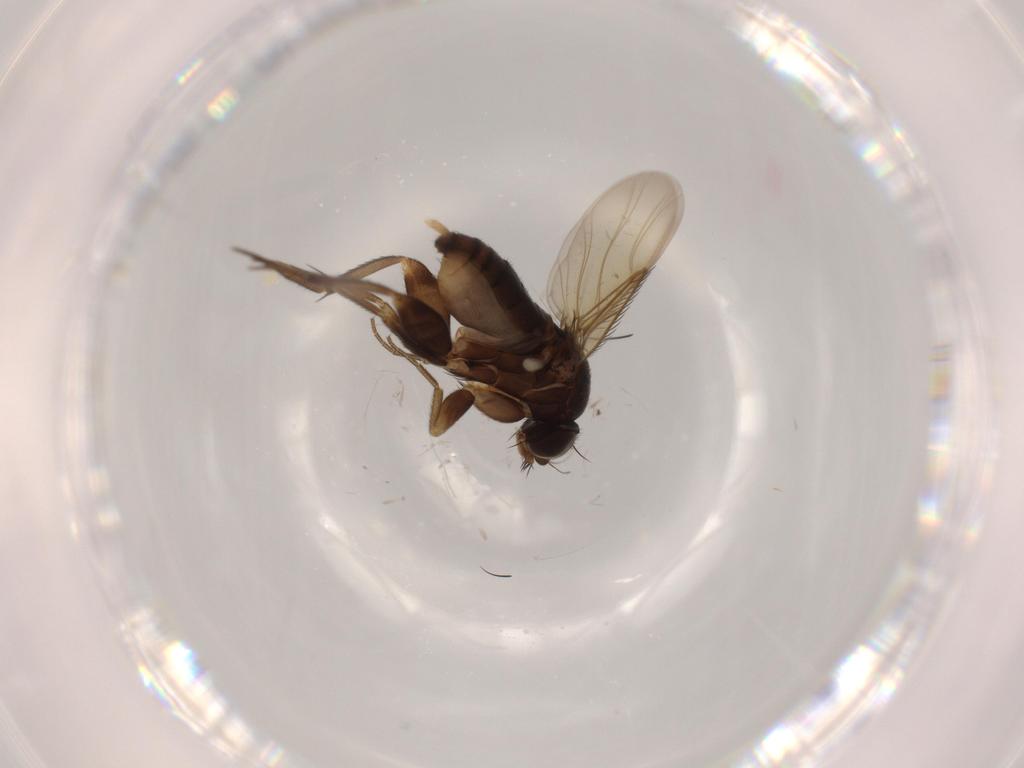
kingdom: Animalia
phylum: Arthropoda
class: Insecta
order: Diptera
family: Phoridae
